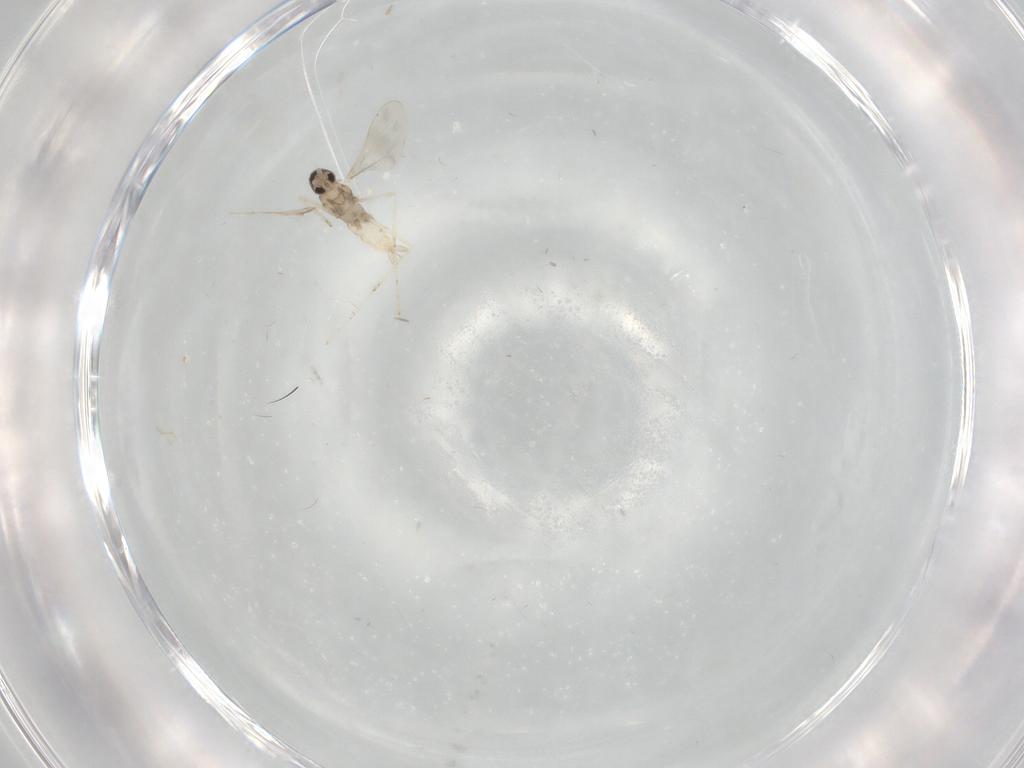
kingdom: Animalia
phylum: Arthropoda
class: Insecta
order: Diptera
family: Cecidomyiidae
